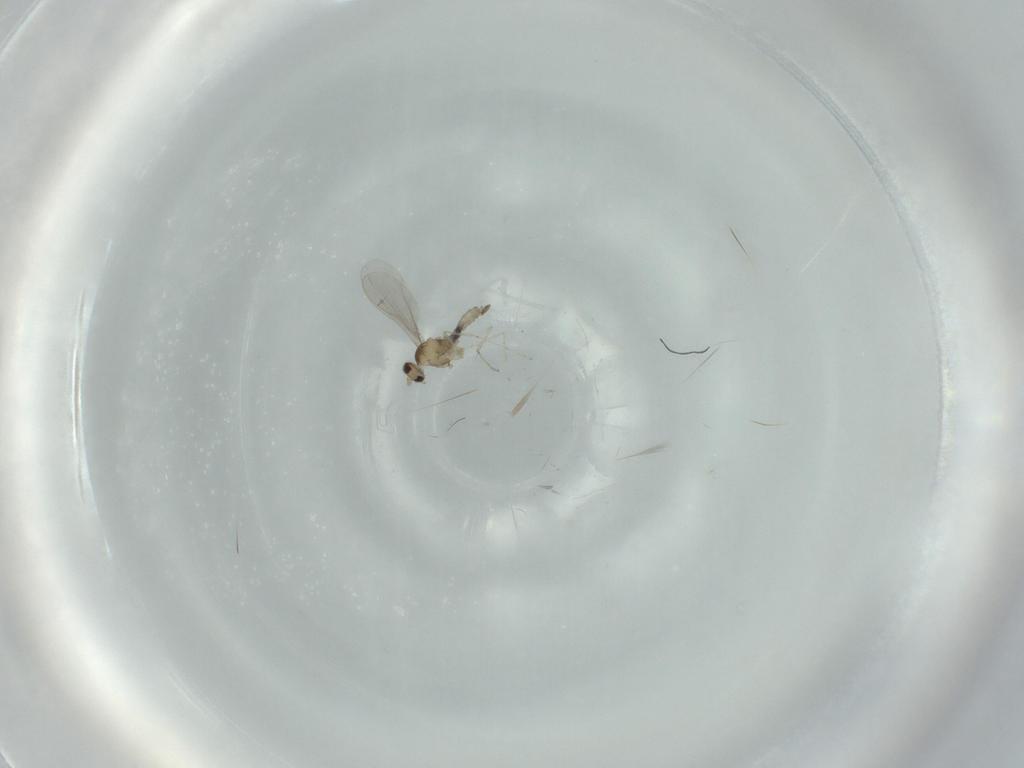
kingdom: Animalia
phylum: Arthropoda
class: Insecta
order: Diptera
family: Cecidomyiidae
